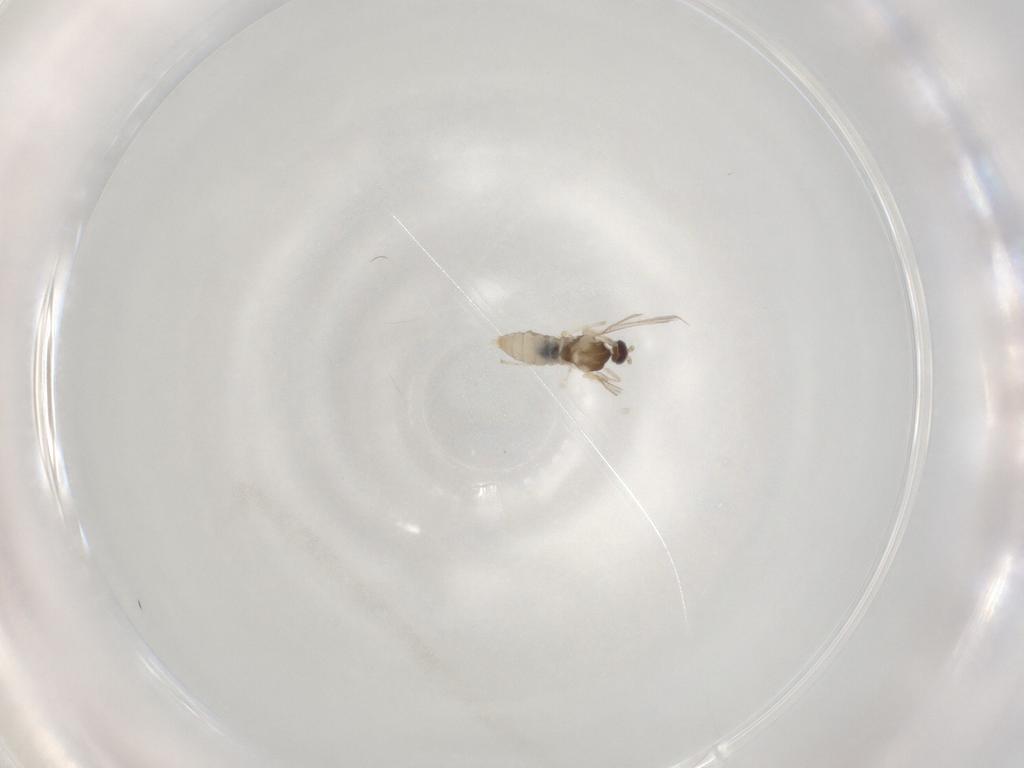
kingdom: Animalia
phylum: Arthropoda
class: Insecta
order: Diptera
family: Cecidomyiidae
